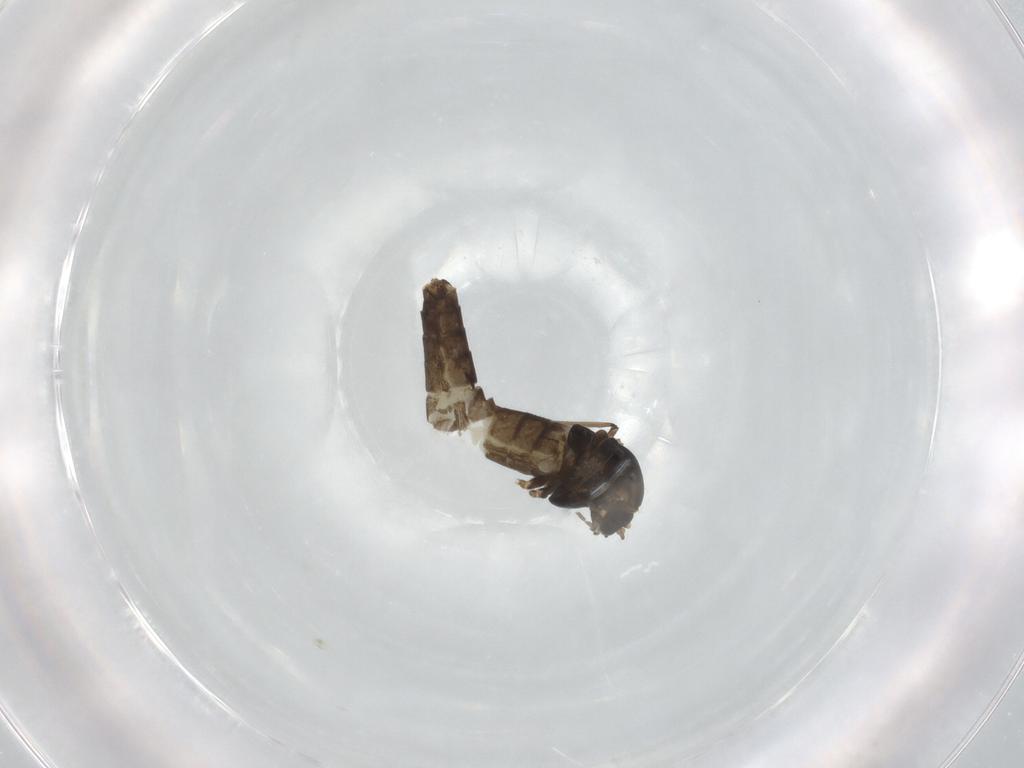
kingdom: Animalia
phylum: Arthropoda
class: Insecta
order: Diptera
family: Chironomidae
